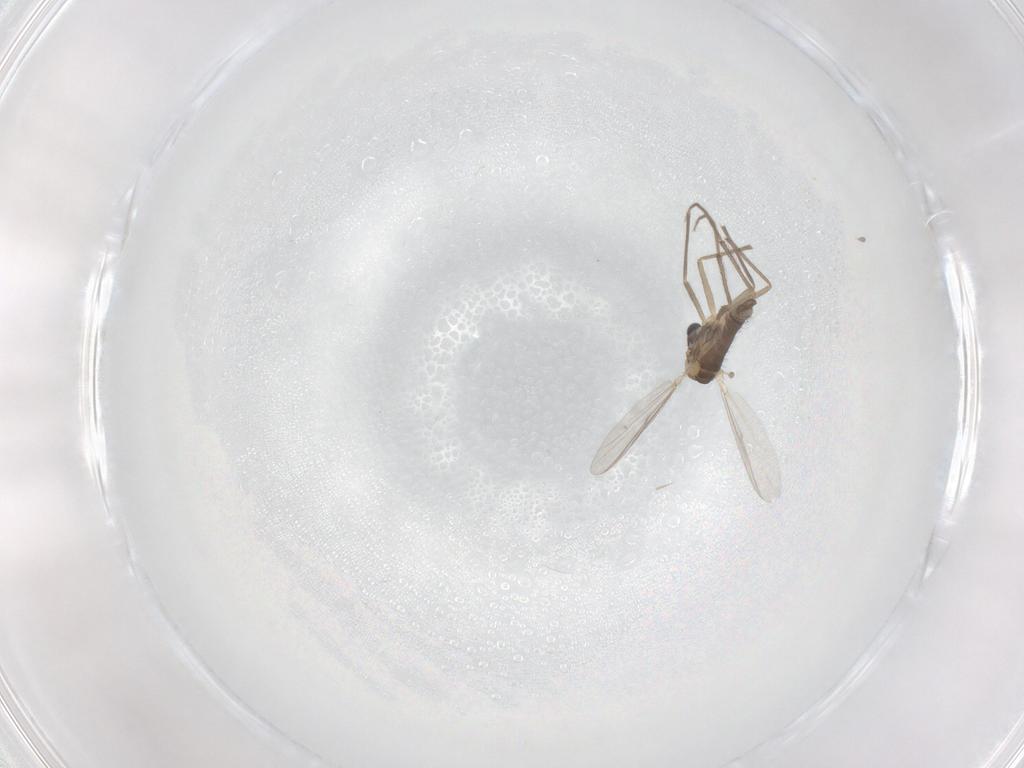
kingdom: Animalia
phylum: Arthropoda
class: Insecta
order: Diptera
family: Chironomidae
